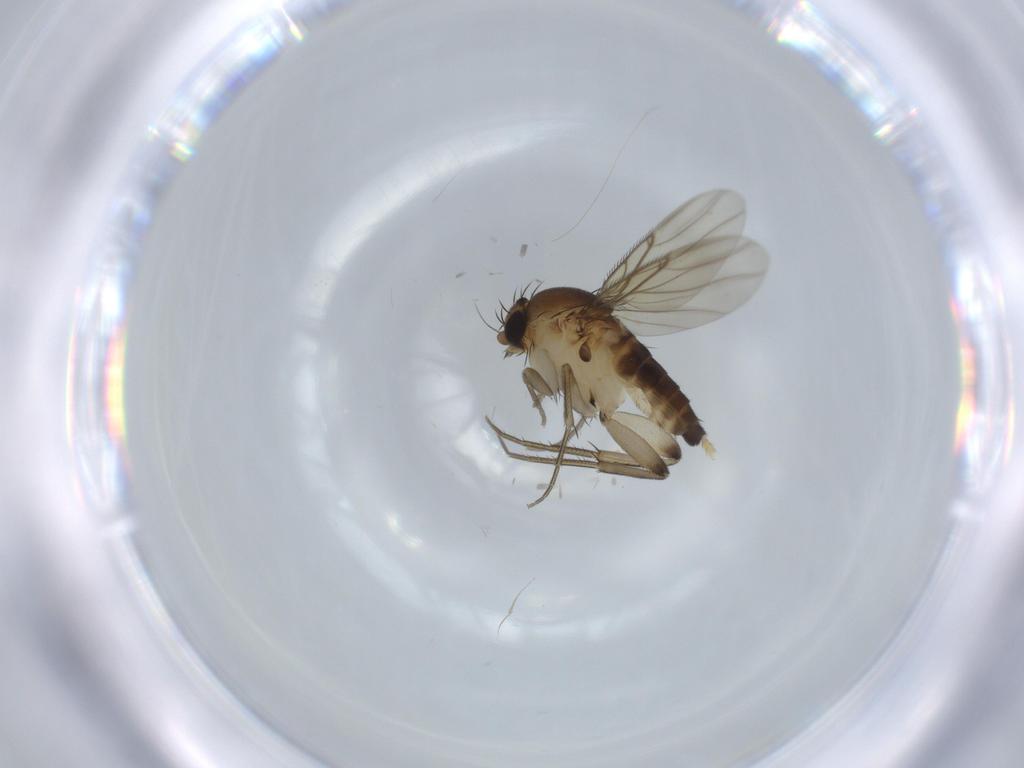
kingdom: Animalia
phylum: Arthropoda
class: Insecta
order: Diptera
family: Phoridae
